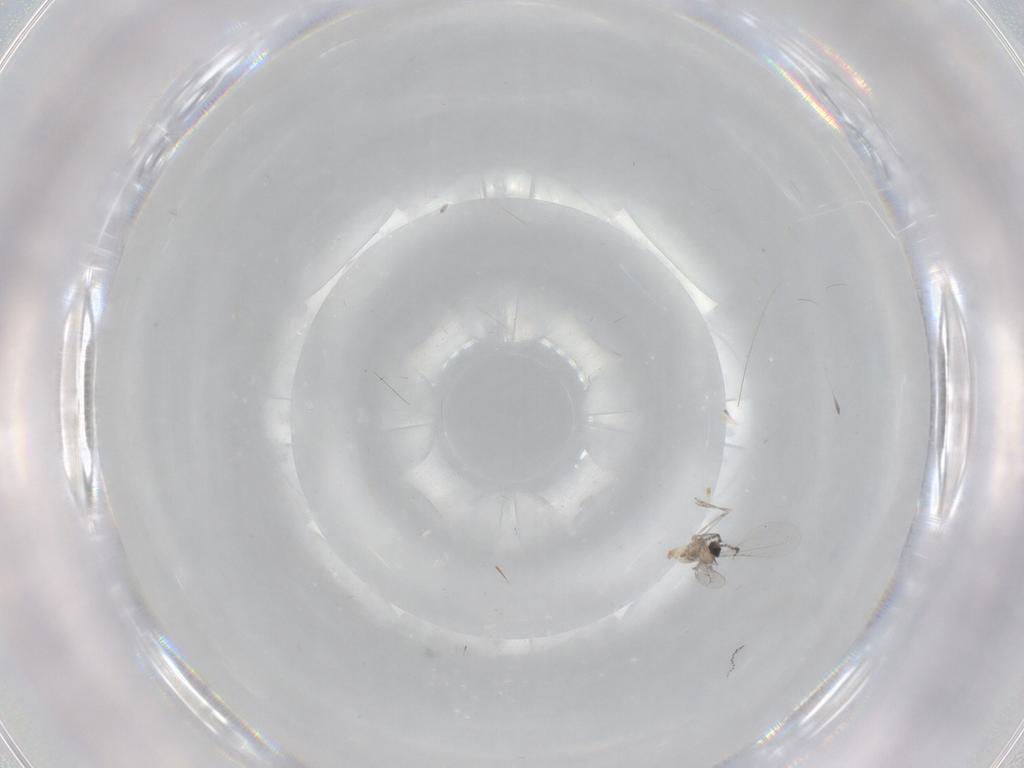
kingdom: Animalia
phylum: Arthropoda
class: Insecta
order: Diptera
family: Cecidomyiidae
